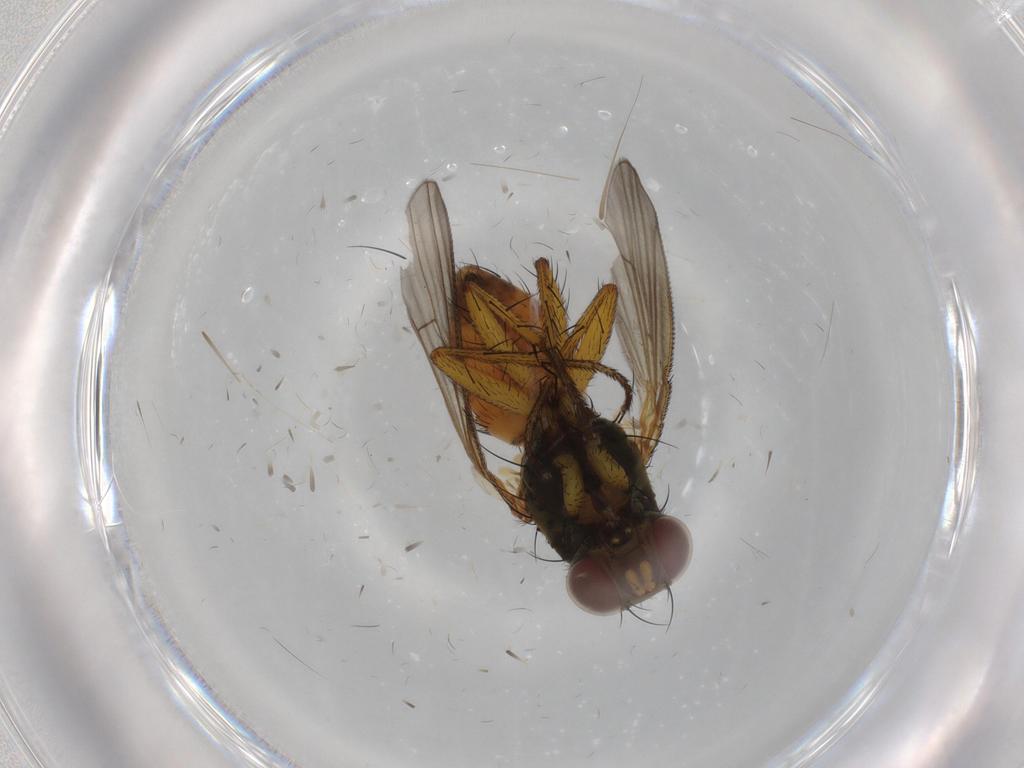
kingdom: Animalia
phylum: Arthropoda
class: Insecta
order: Diptera
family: Muscidae
